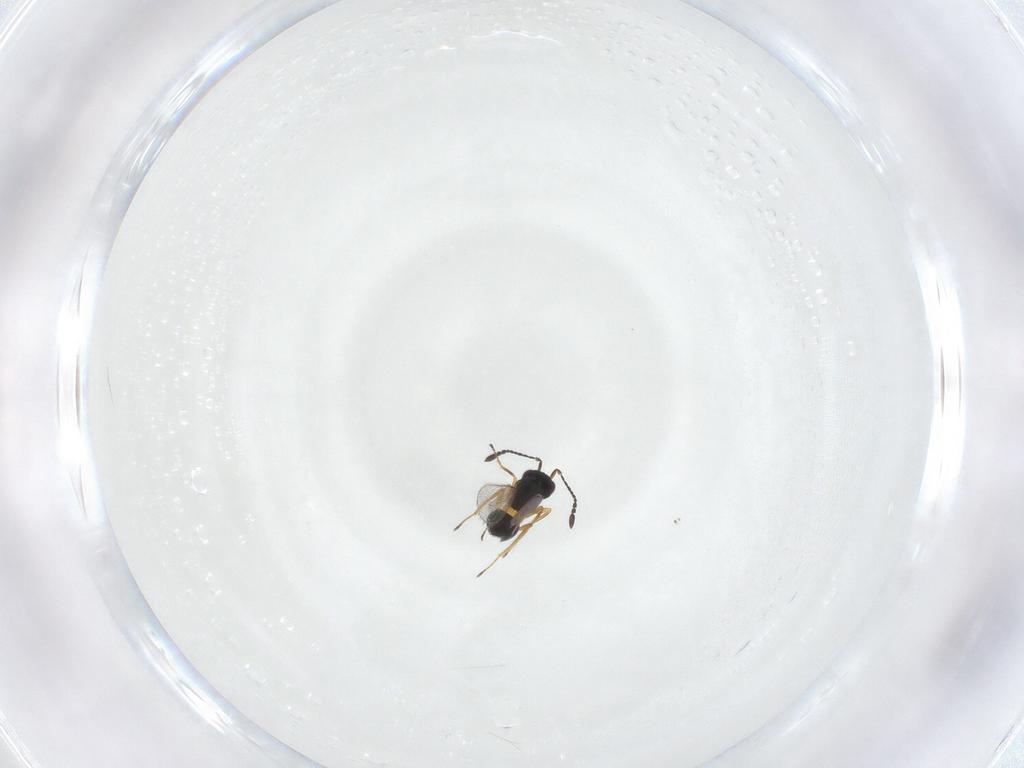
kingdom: Animalia
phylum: Arthropoda
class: Insecta
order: Hymenoptera
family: Mymaridae
